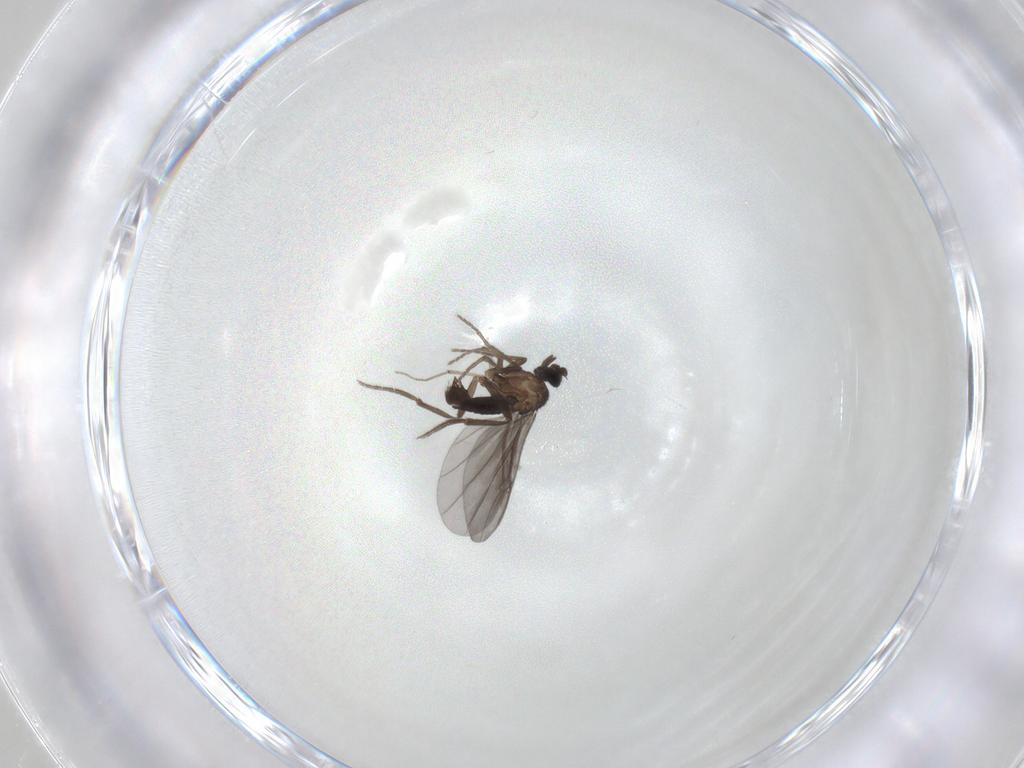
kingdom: Animalia
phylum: Arthropoda
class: Insecta
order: Diptera
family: Phoridae
